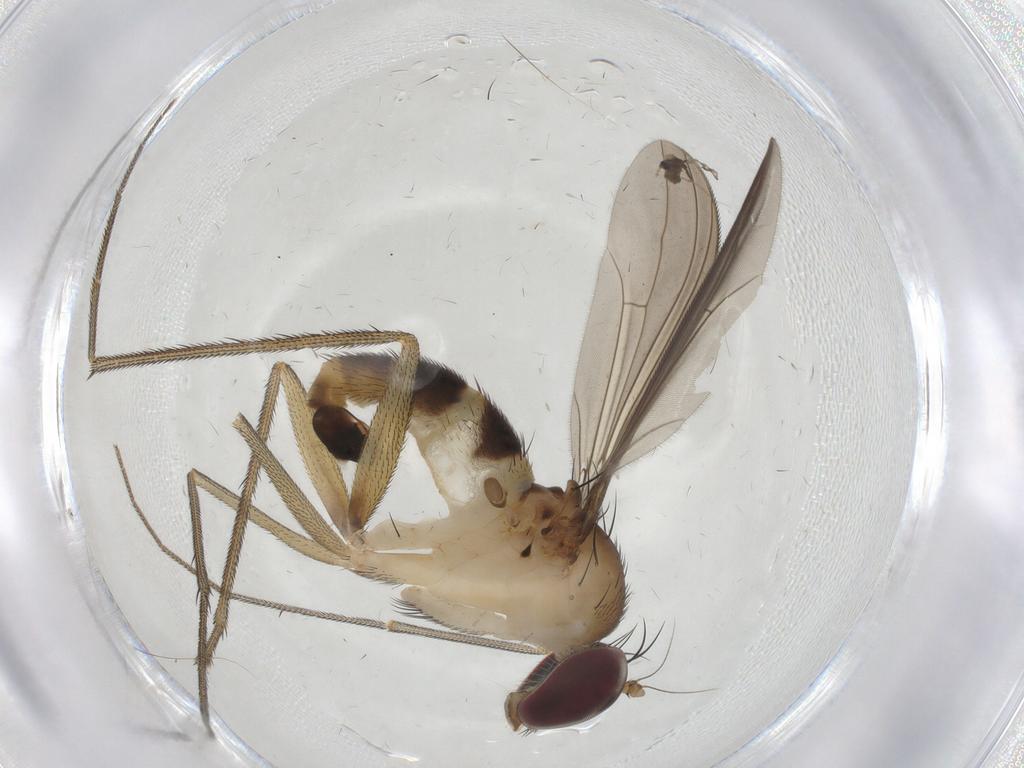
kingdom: Animalia
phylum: Arthropoda
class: Insecta
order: Diptera
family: Dolichopodidae
